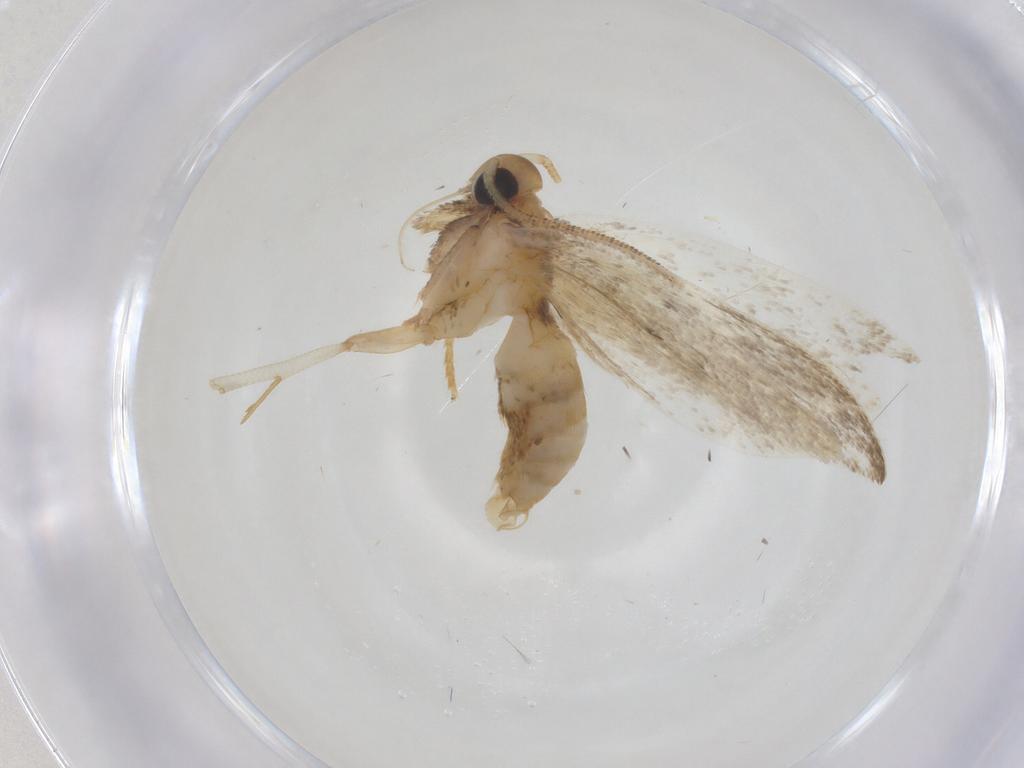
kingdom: Animalia
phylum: Arthropoda
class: Insecta
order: Lepidoptera
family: Oecophoridae
